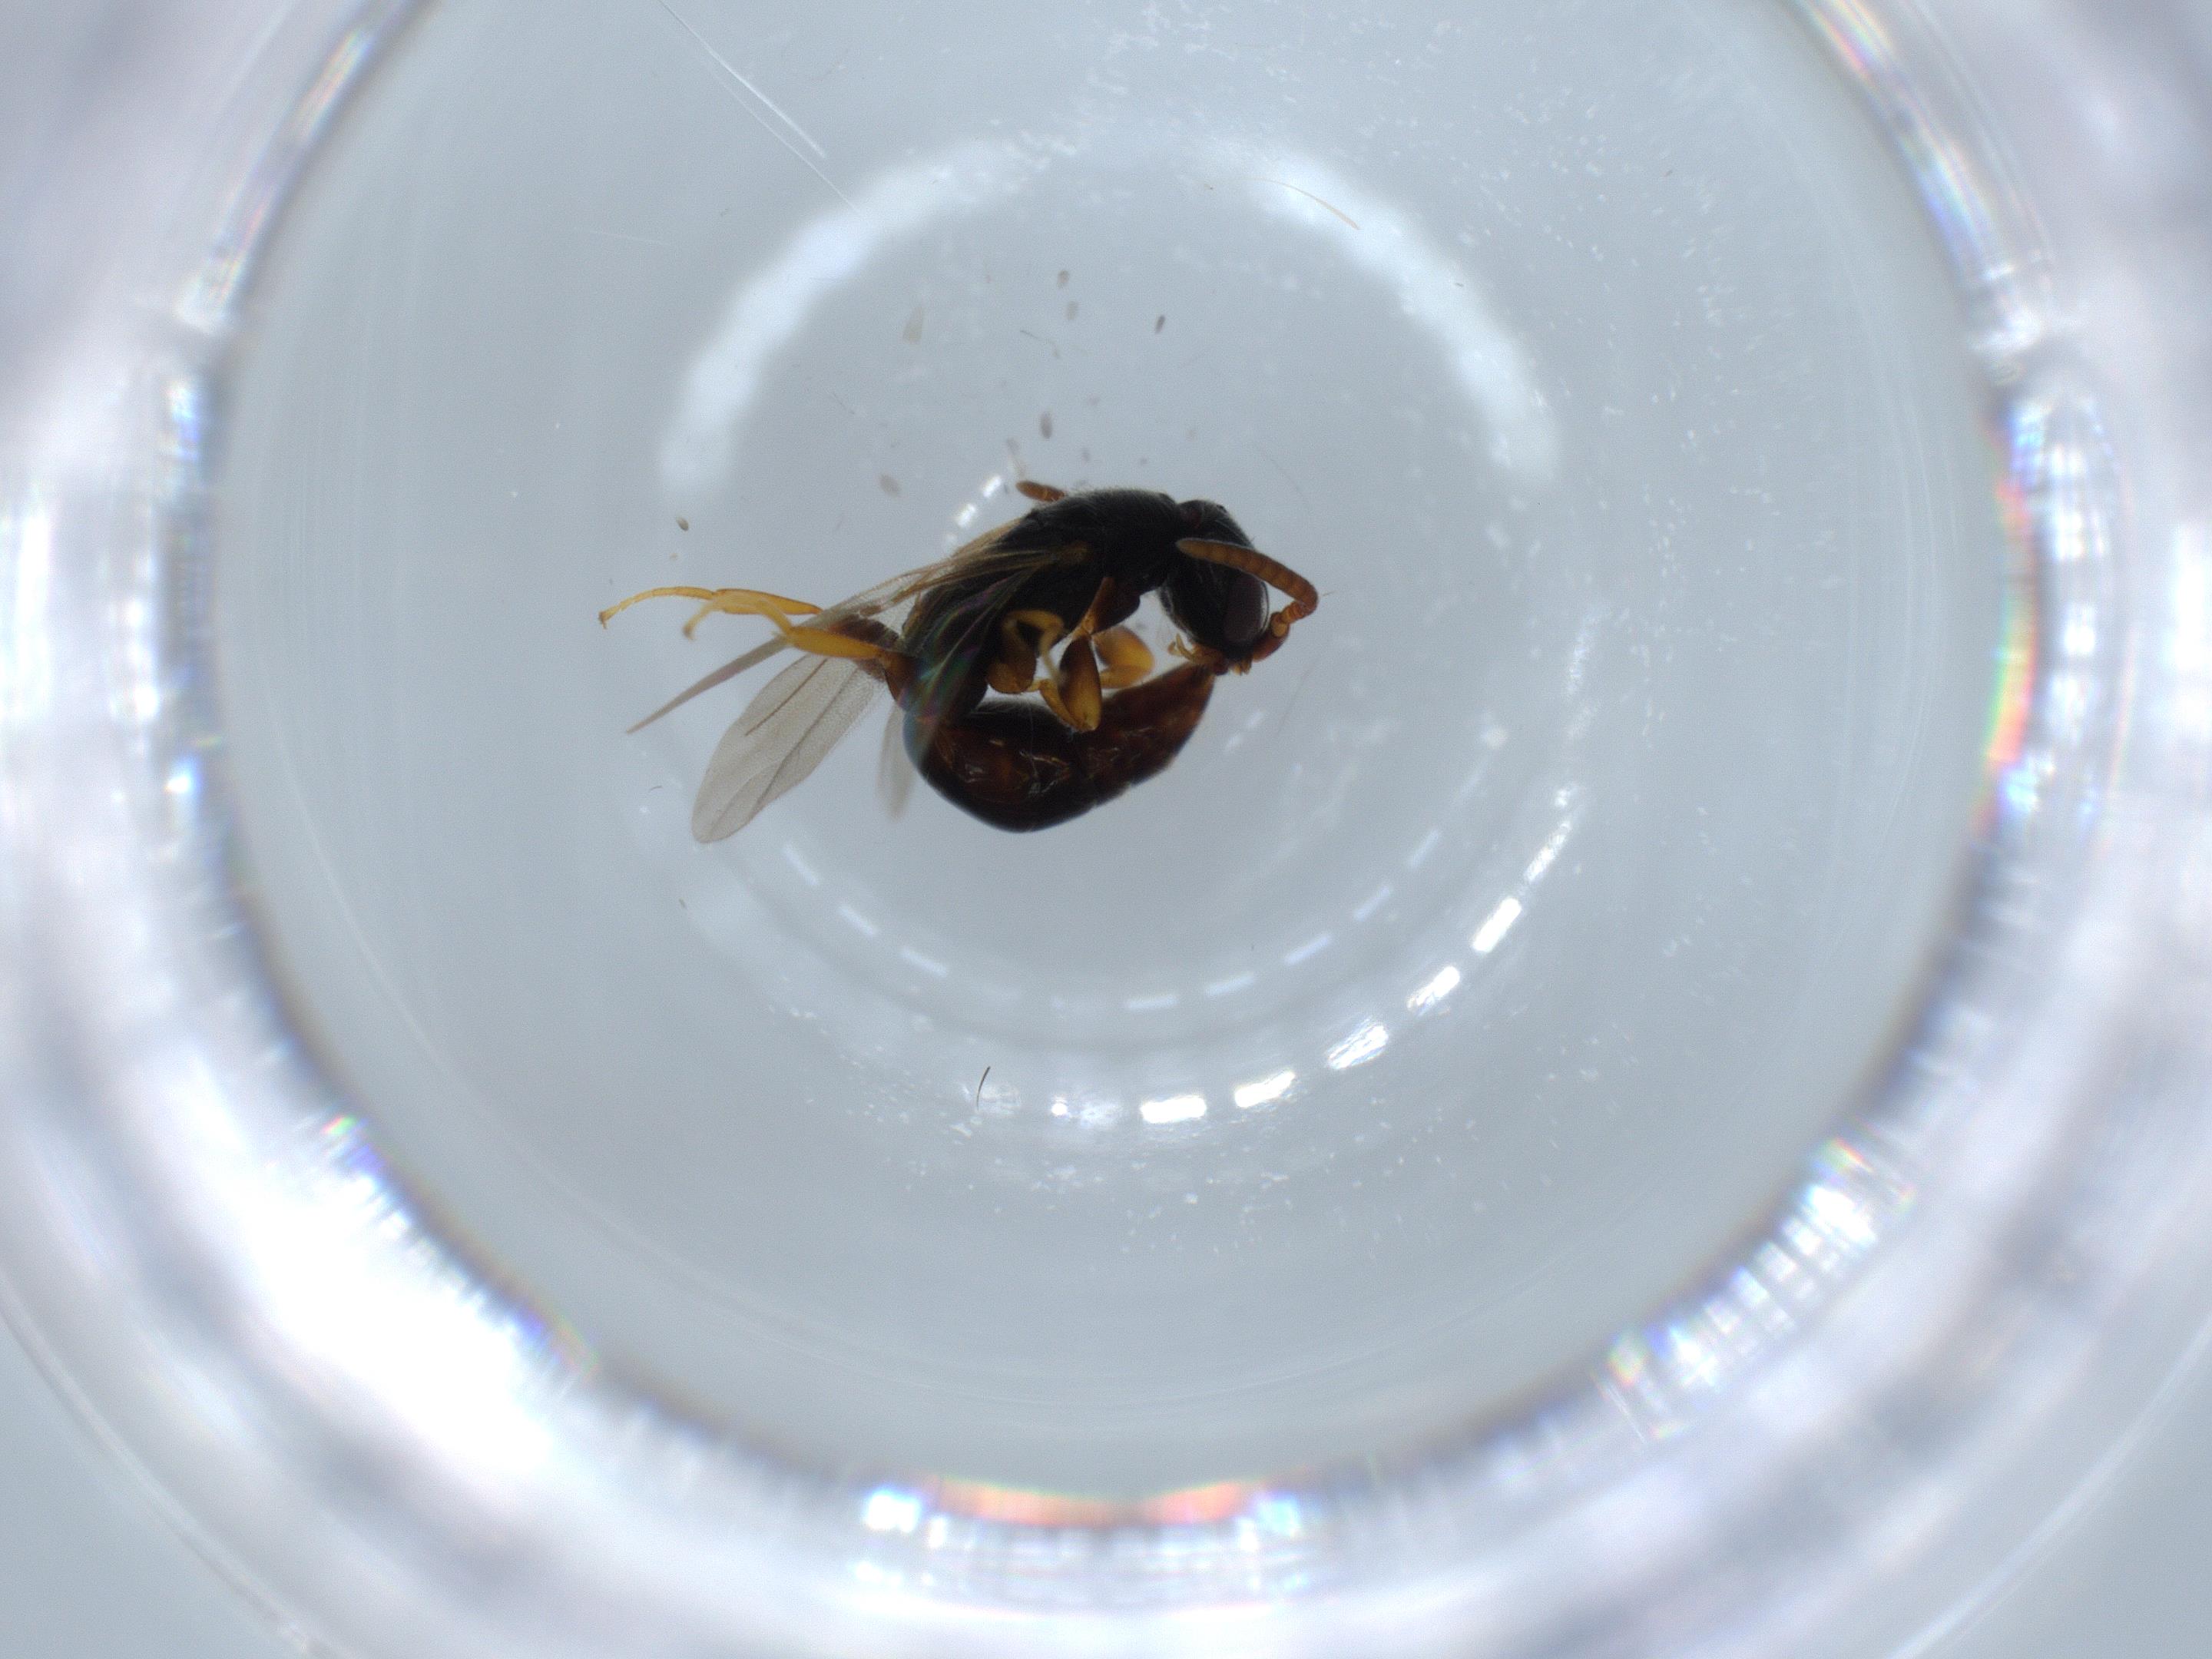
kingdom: Animalia
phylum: Arthropoda
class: Insecta
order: Hymenoptera
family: Bethylidae
